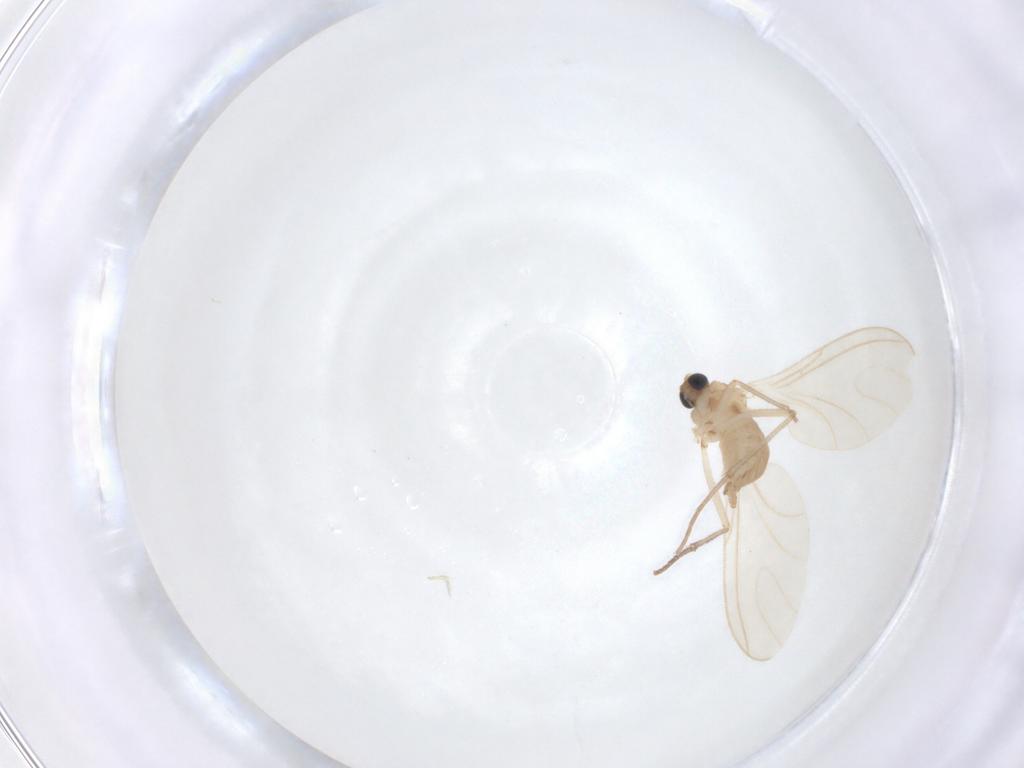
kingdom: Animalia
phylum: Arthropoda
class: Insecta
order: Diptera
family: Sciaridae
